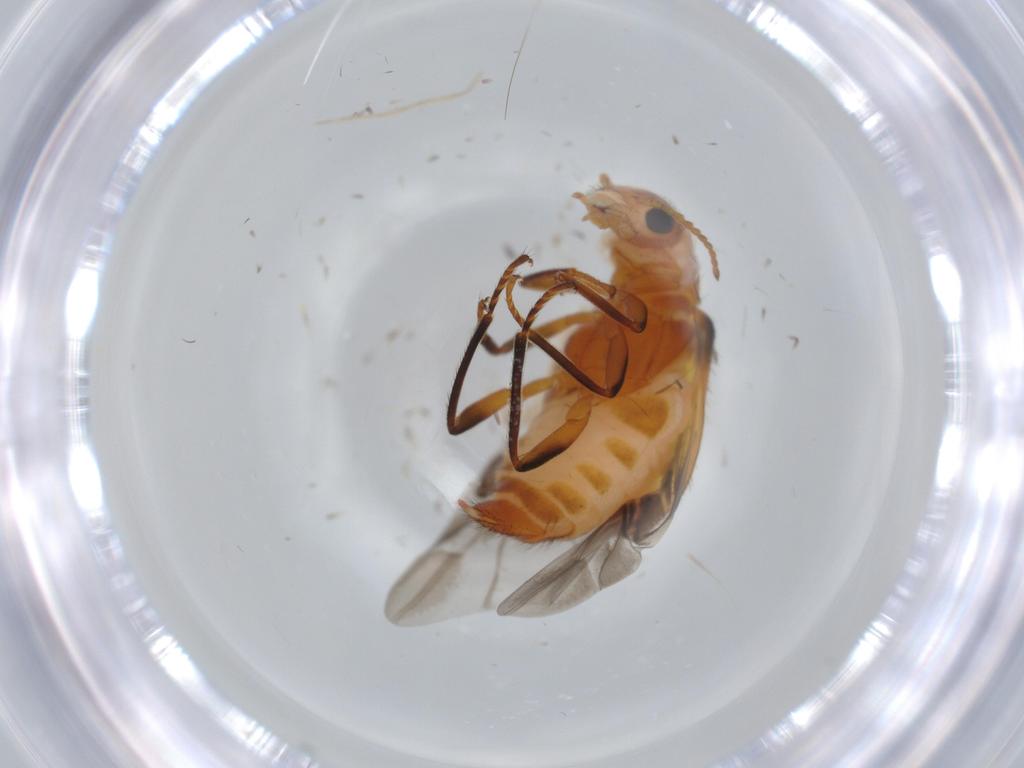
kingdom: Animalia
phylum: Arthropoda
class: Insecta
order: Coleoptera
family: Melyridae
